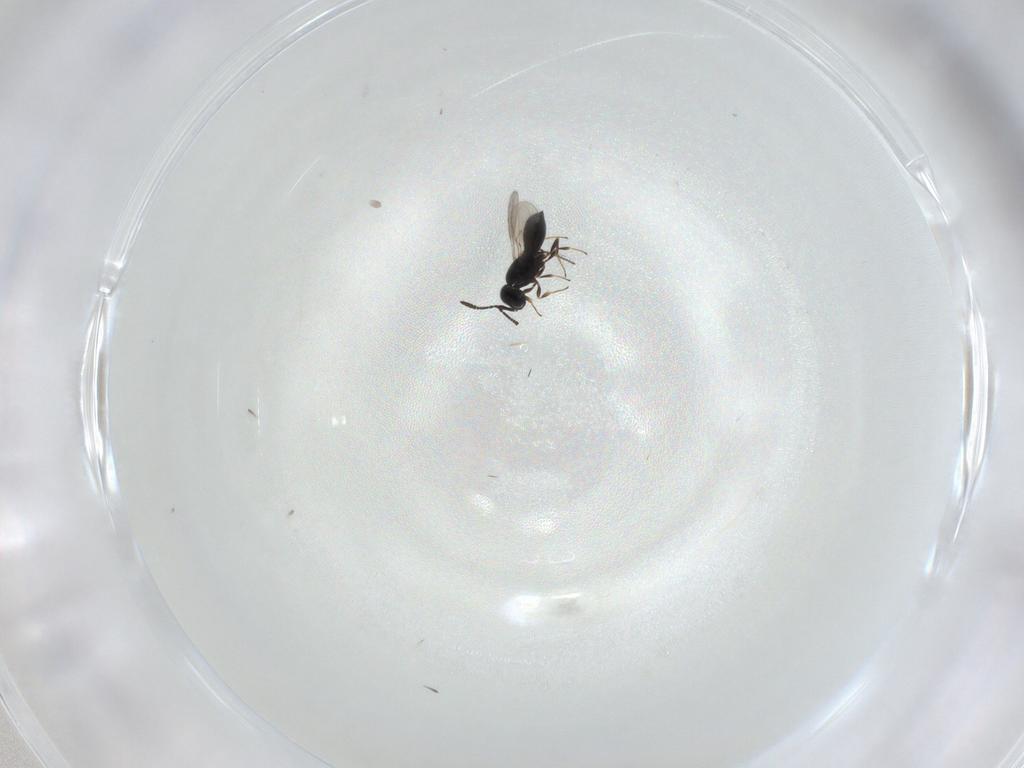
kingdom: Animalia
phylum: Arthropoda
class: Insecta
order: Hymenoptera
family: Scelionidae
